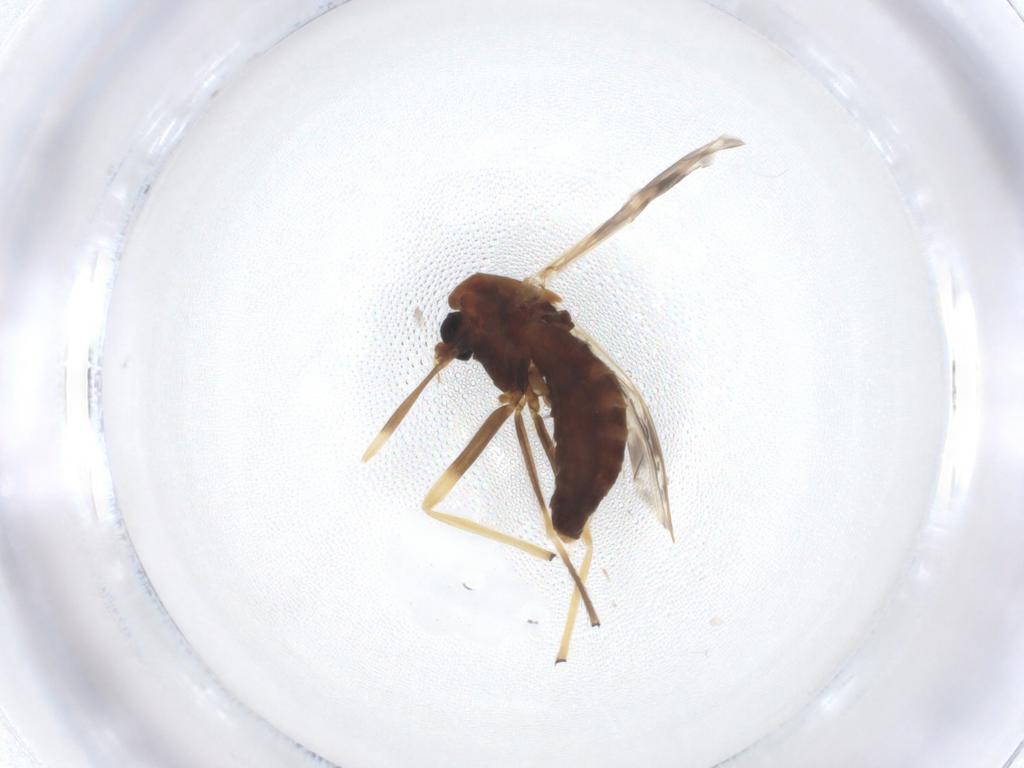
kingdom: Animalia
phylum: Arthropoda
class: Insecta
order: Diptera
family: Chironomidae
